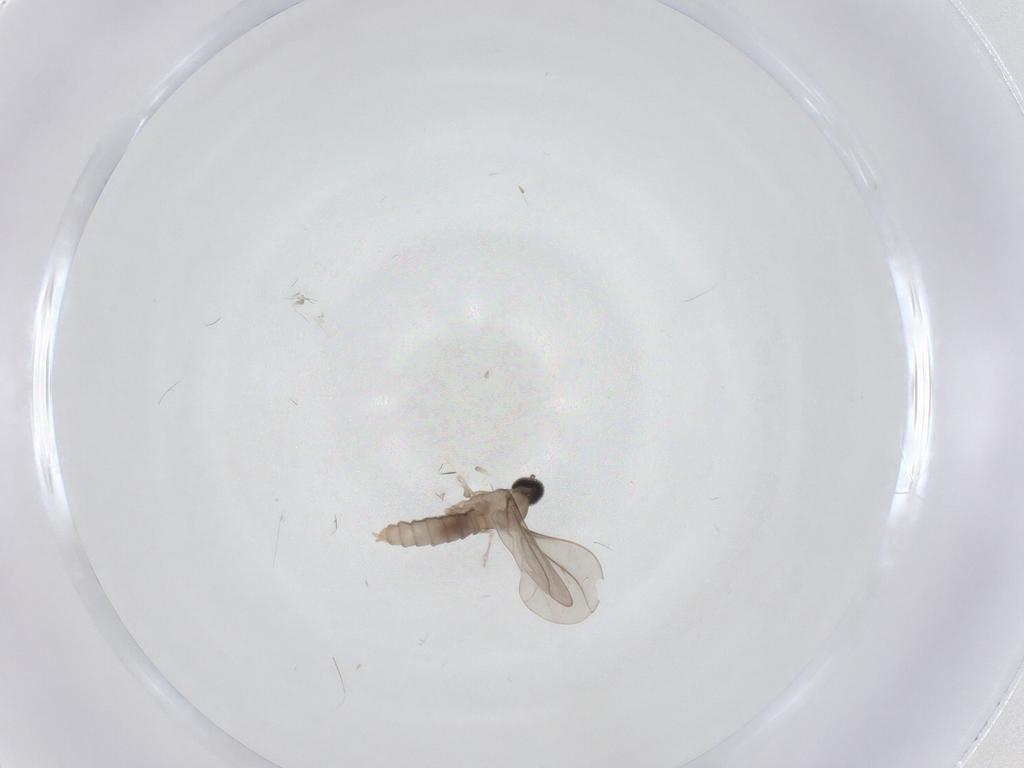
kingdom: Animalia
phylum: Arthropoda
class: Insecta
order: Diptera
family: Cecidomyiidae
